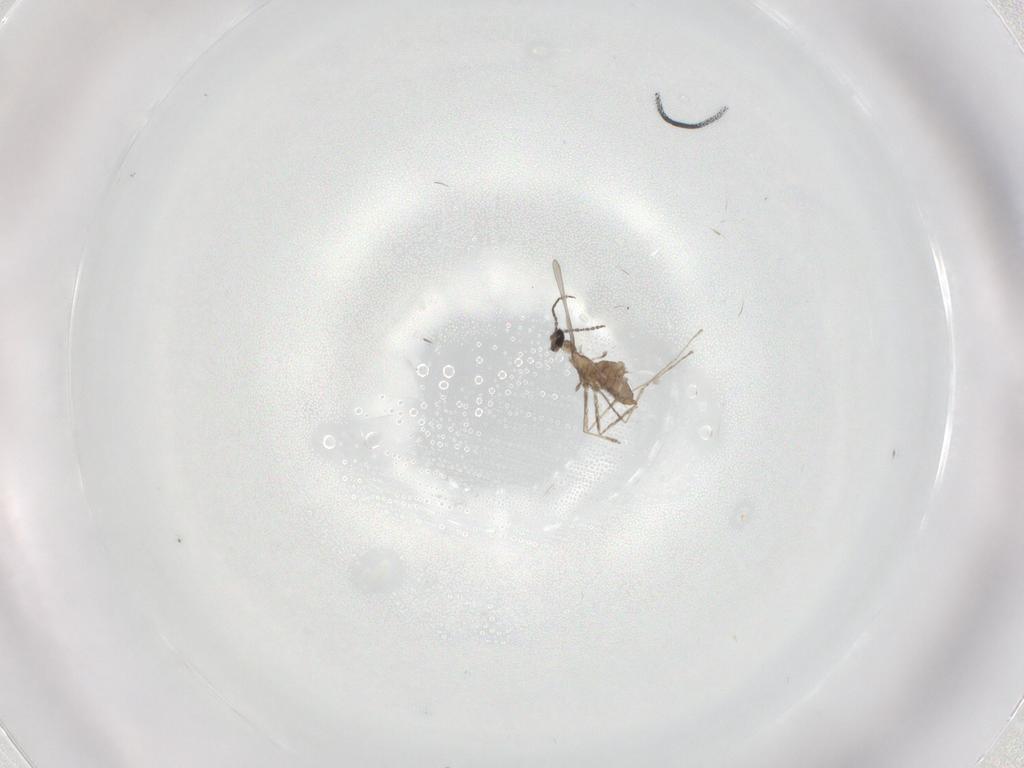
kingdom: Animalia
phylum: Arthropoda
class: Insecta
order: Diptera
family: Cecidomyiidae
